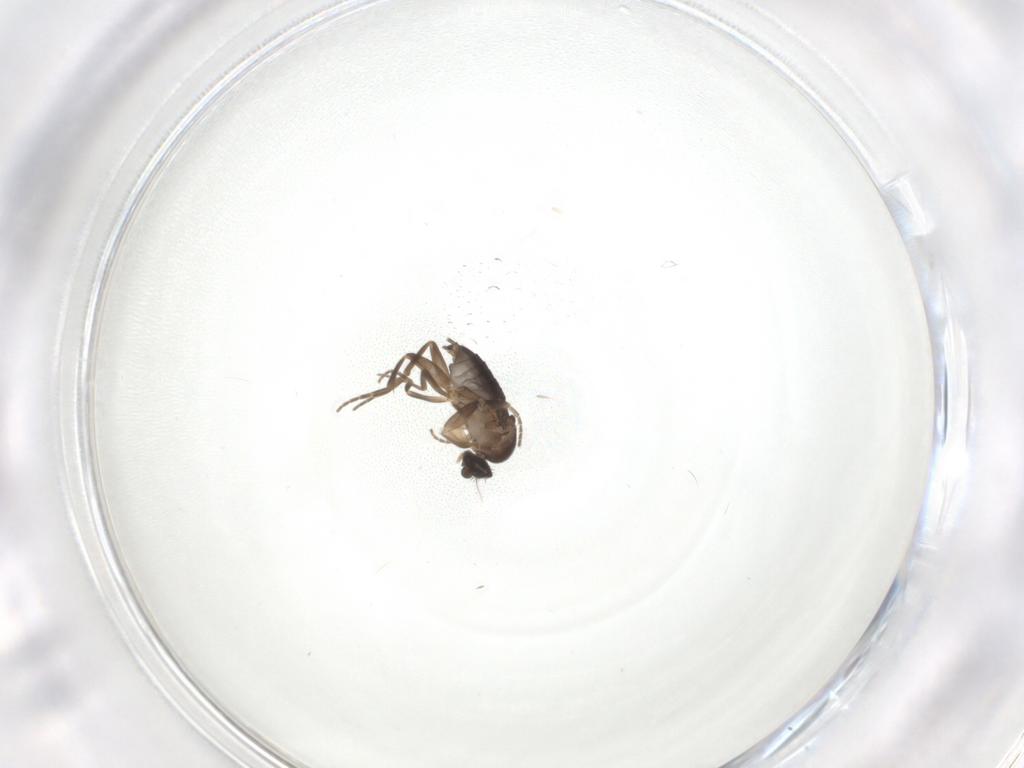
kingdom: Animalia
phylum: Arthropoda
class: Insecta
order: Diptera
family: Phoridae
